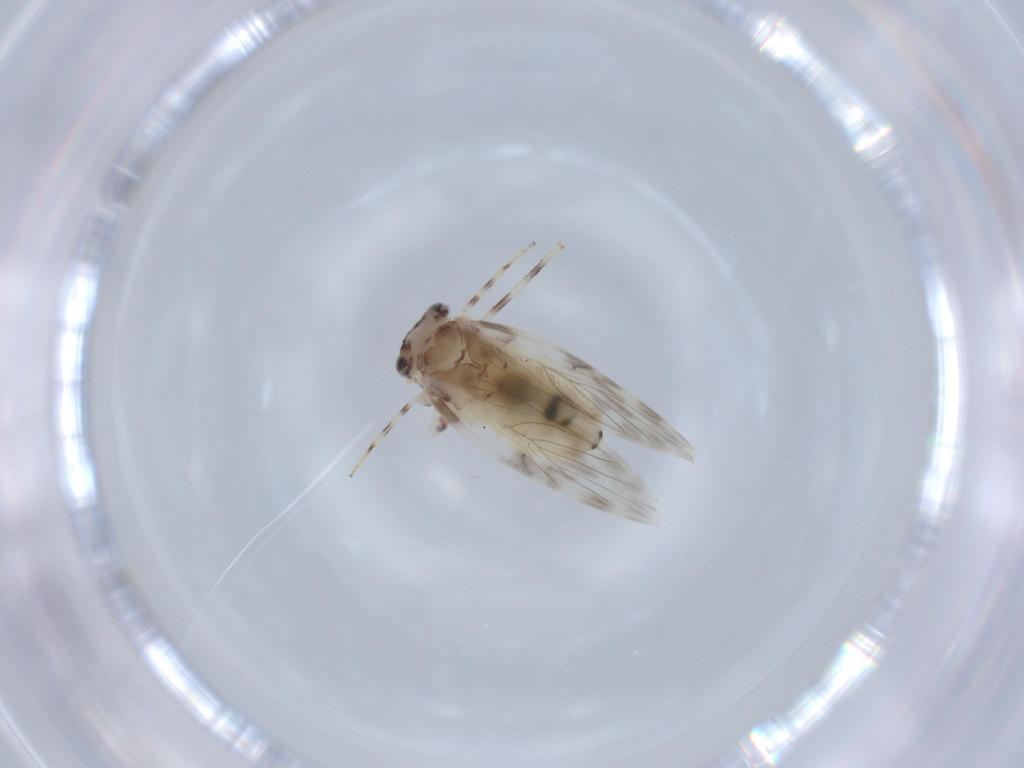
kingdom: Animalia
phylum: Arthropoda
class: Insecta
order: Psocodea
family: Lepidopsocidae
